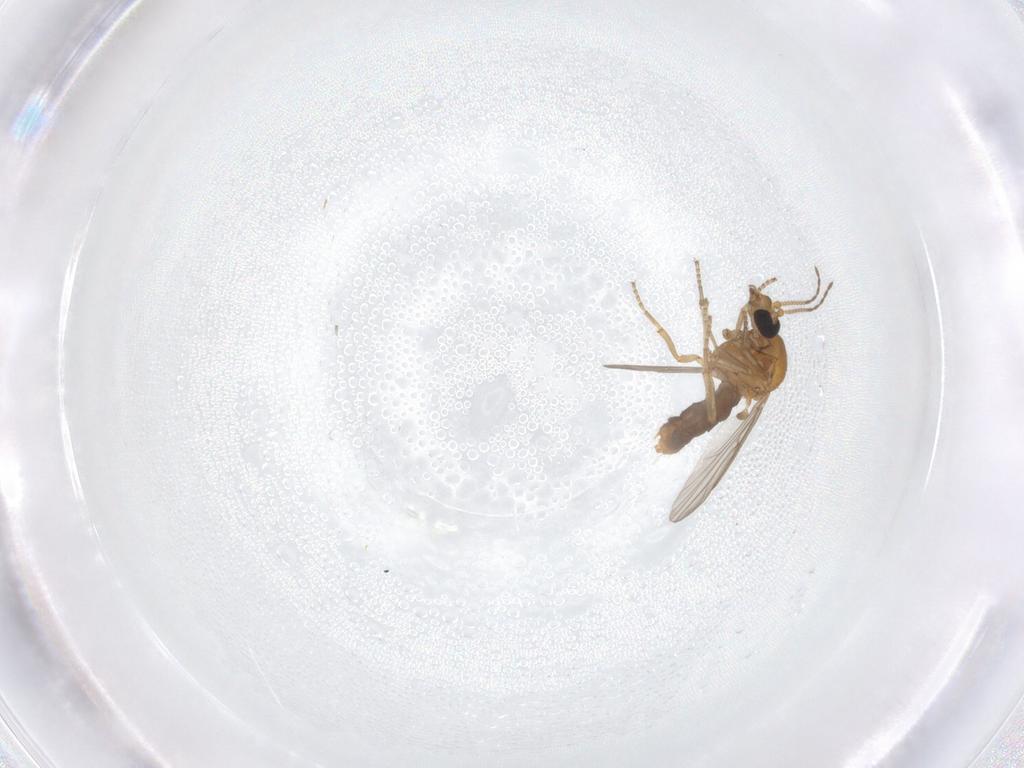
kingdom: Animalia
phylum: Arthropoda
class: Insecta
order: Diptera
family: Ceratopogonidae
